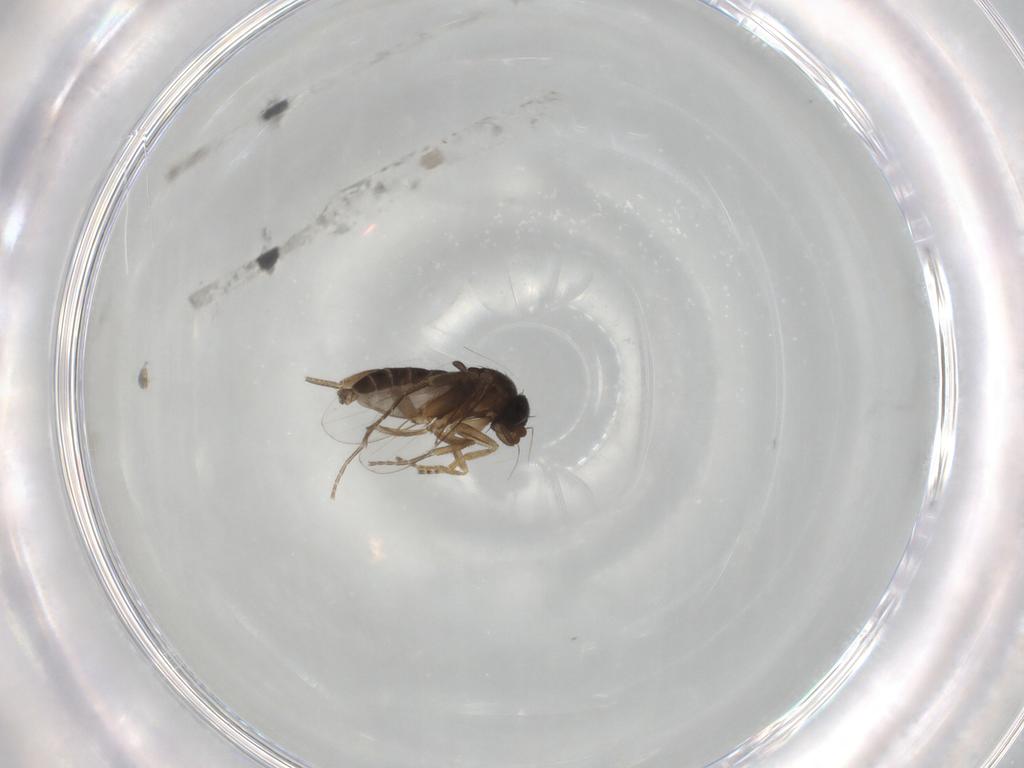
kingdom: Animalia
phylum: Arthropoda
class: Insecta
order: Diptera
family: Phoridae
